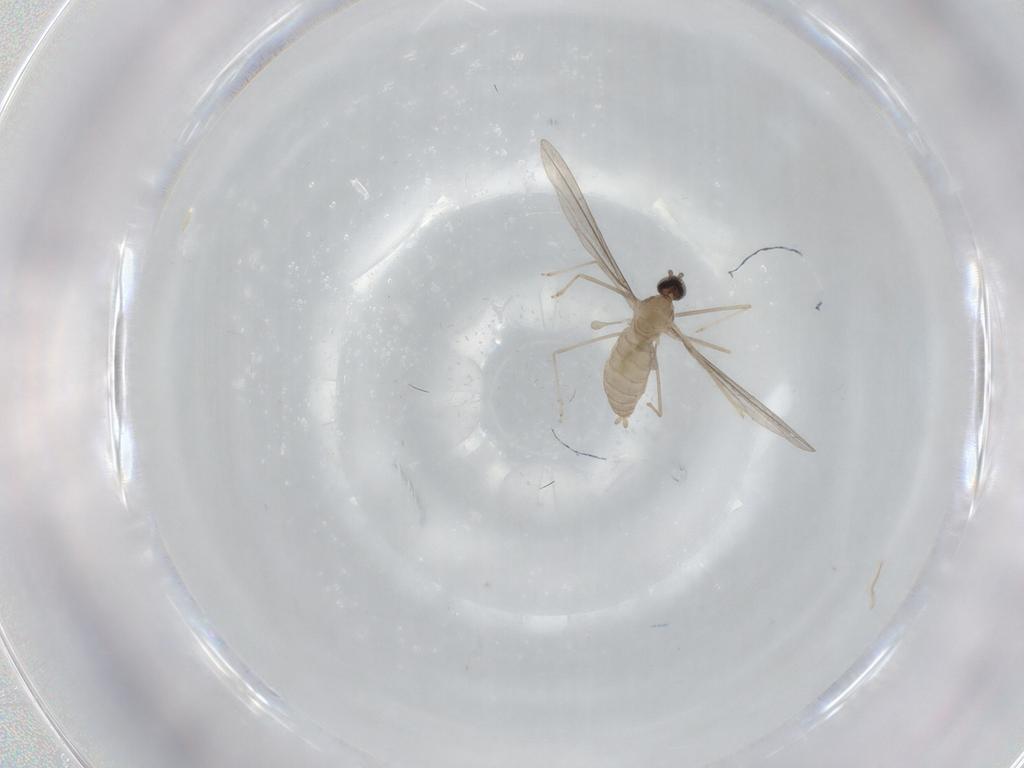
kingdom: Animalia
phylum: Arthropoda
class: Insecta
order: Diptera
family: Cecidomyiidae
